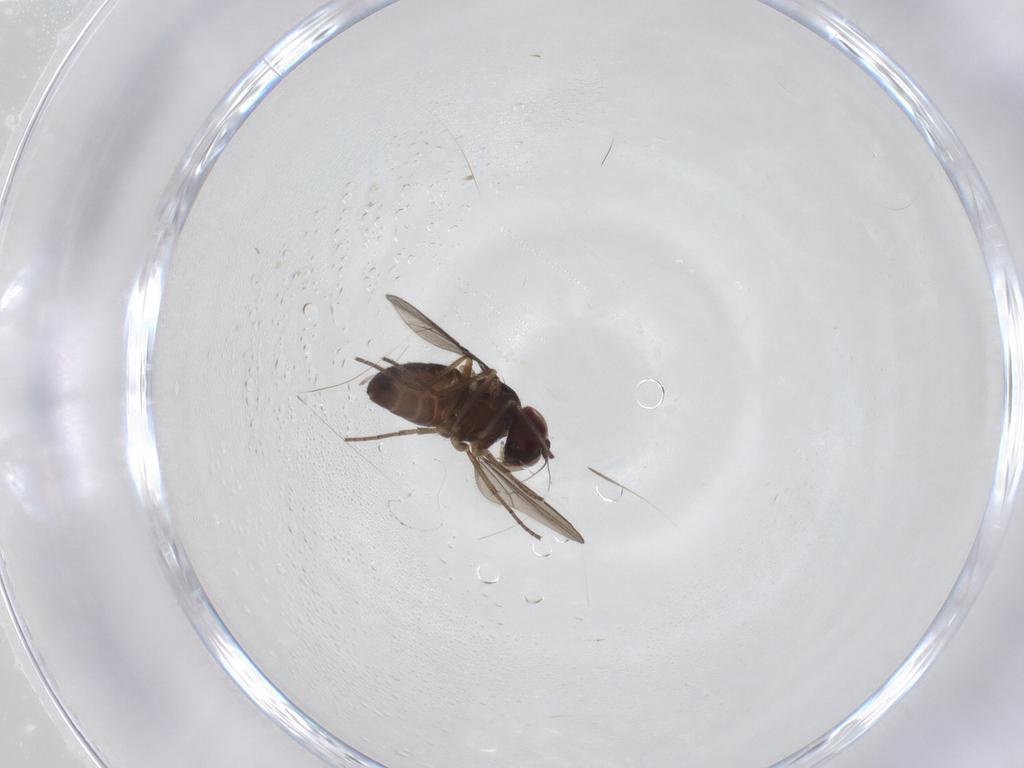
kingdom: Animalia
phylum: Arthropoda
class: Insecta
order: Diptera
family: Dolichopodidae
